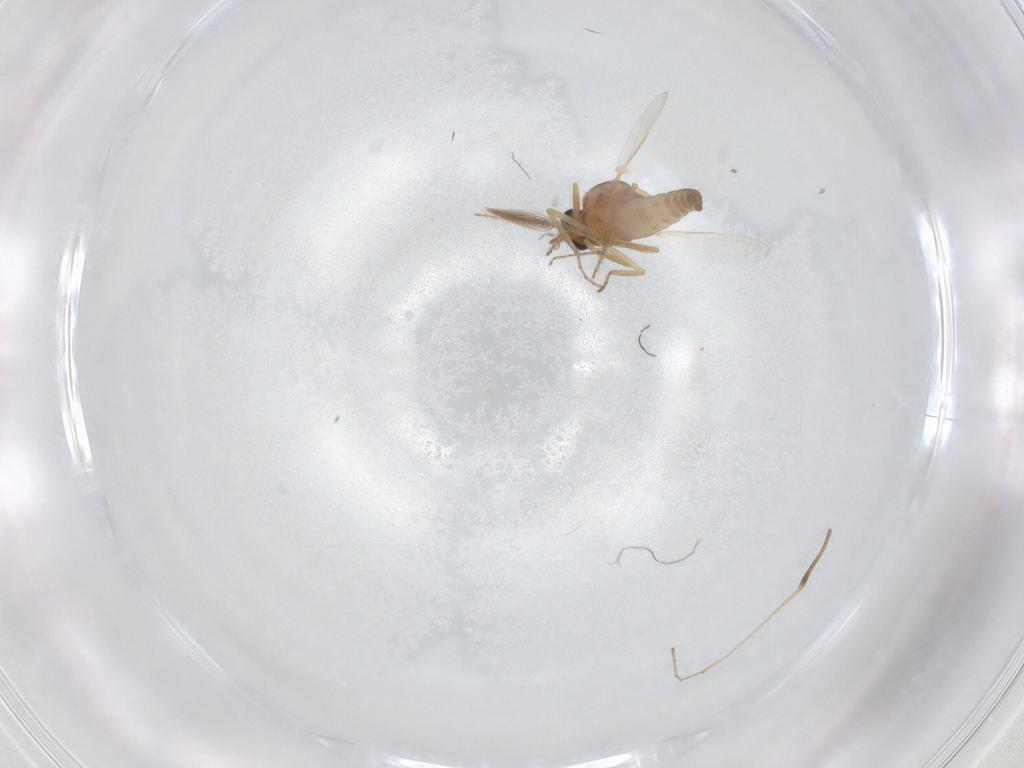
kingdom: Animalia
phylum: Arthropoda
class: Insecta
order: Diptera
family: Ceratopogonidae
